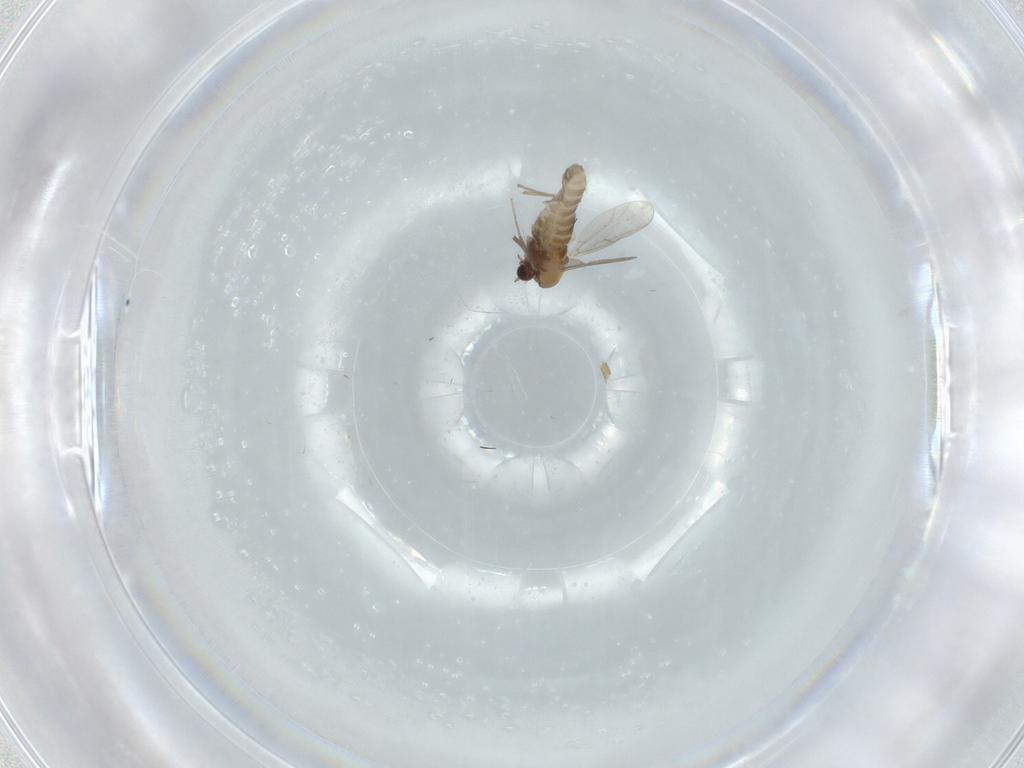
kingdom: Animalia
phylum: Arthropoda
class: Insecta
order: Diptera
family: Chironomidae
